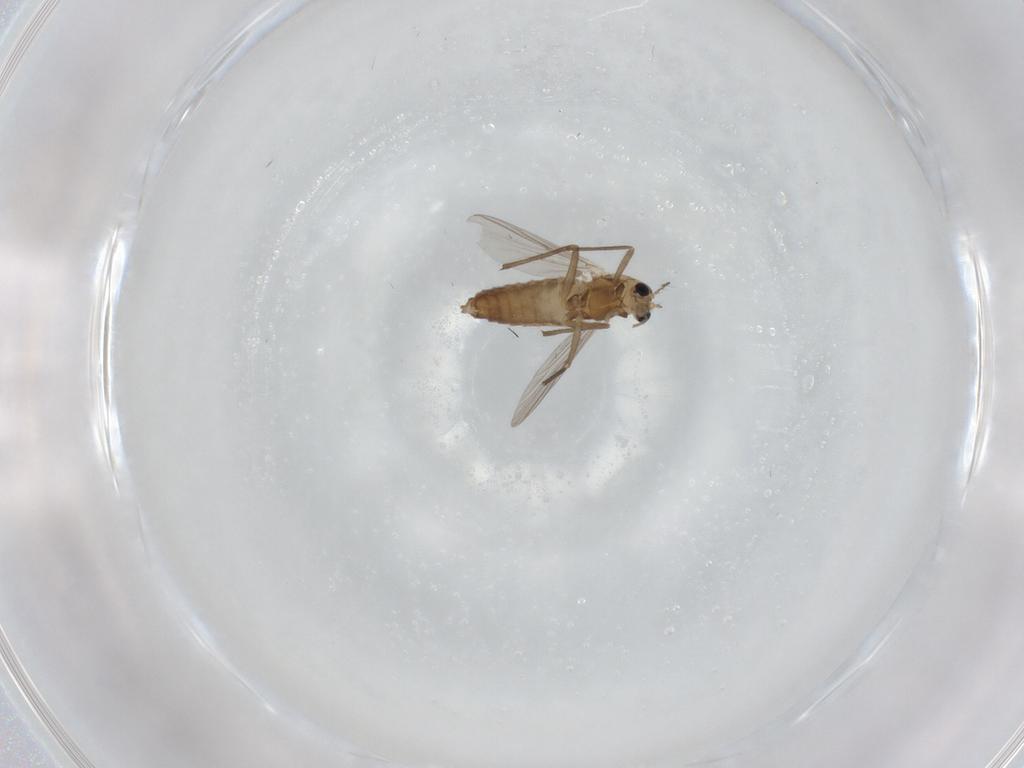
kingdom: Animalia
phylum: Arthropoda
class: Insecta
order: Diptera
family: Chironomidae
